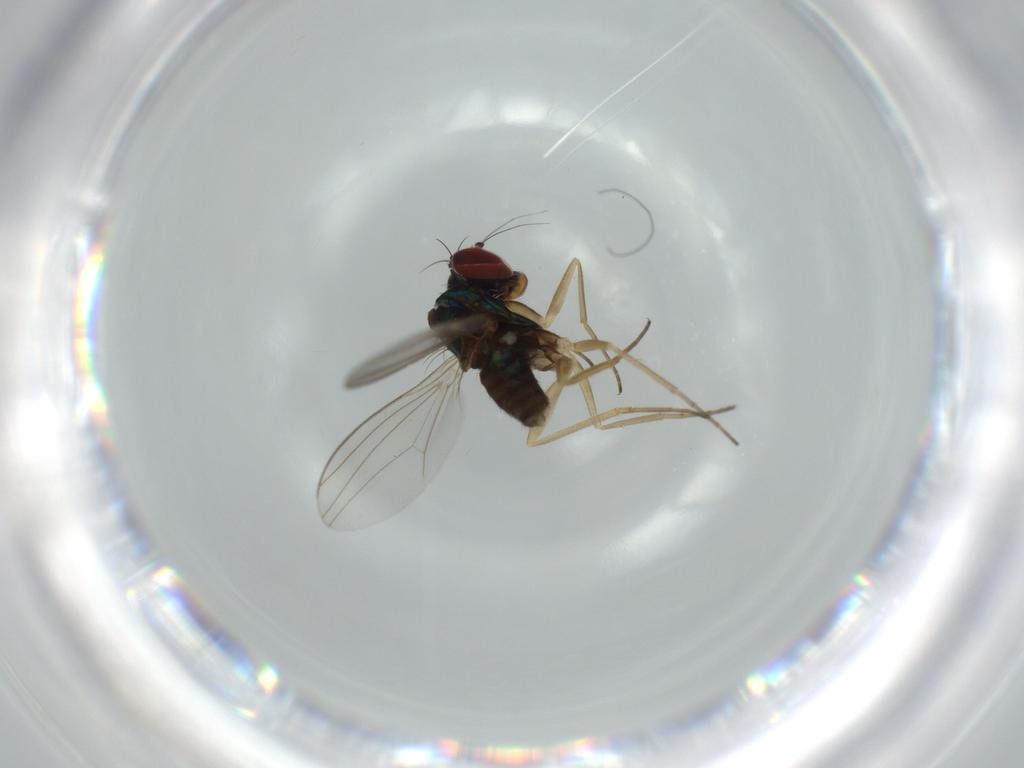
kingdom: Animalia
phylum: Arthropoda
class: Insecta
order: Diptera
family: Dolichopodidae
